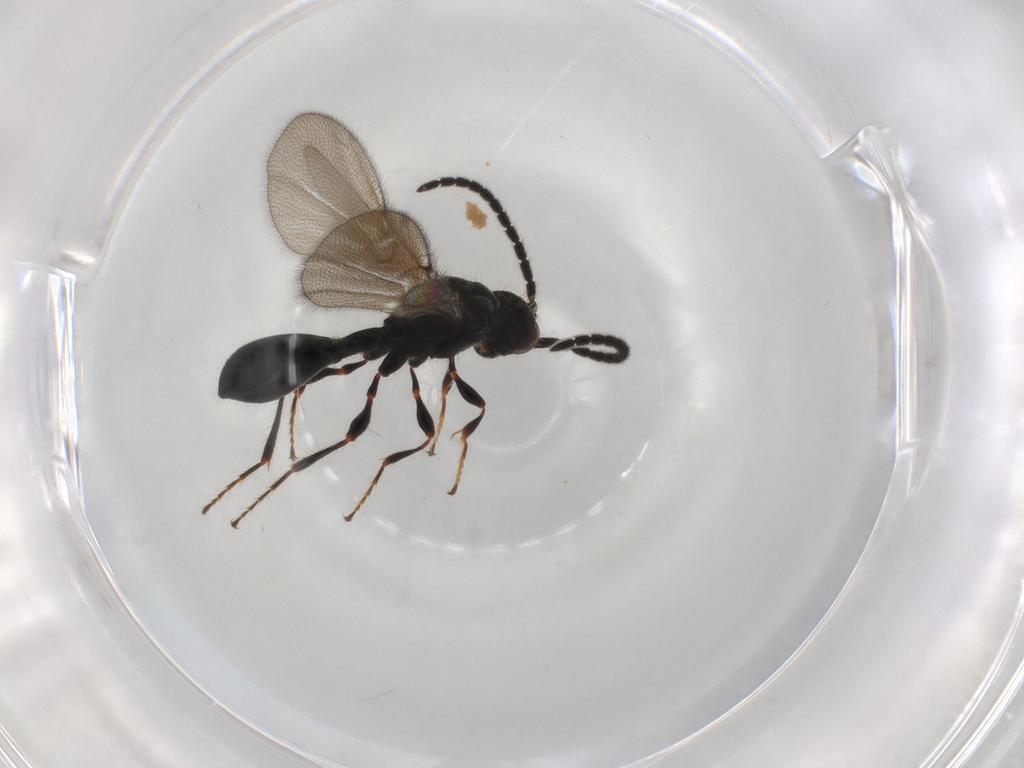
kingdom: Animalia
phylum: Arthropoda
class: Insecta
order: Hymenoptera
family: Diapriidae
